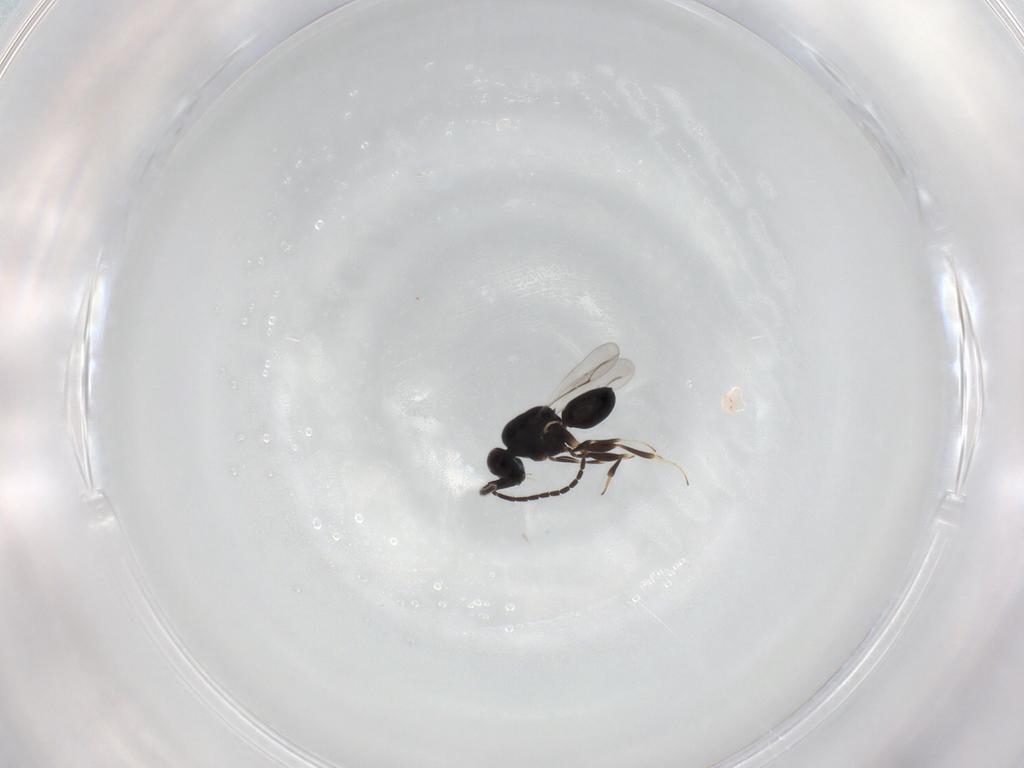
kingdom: Animalia
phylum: Arthropoda
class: Insecta
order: Hymenoptera
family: Ceraphronidae
